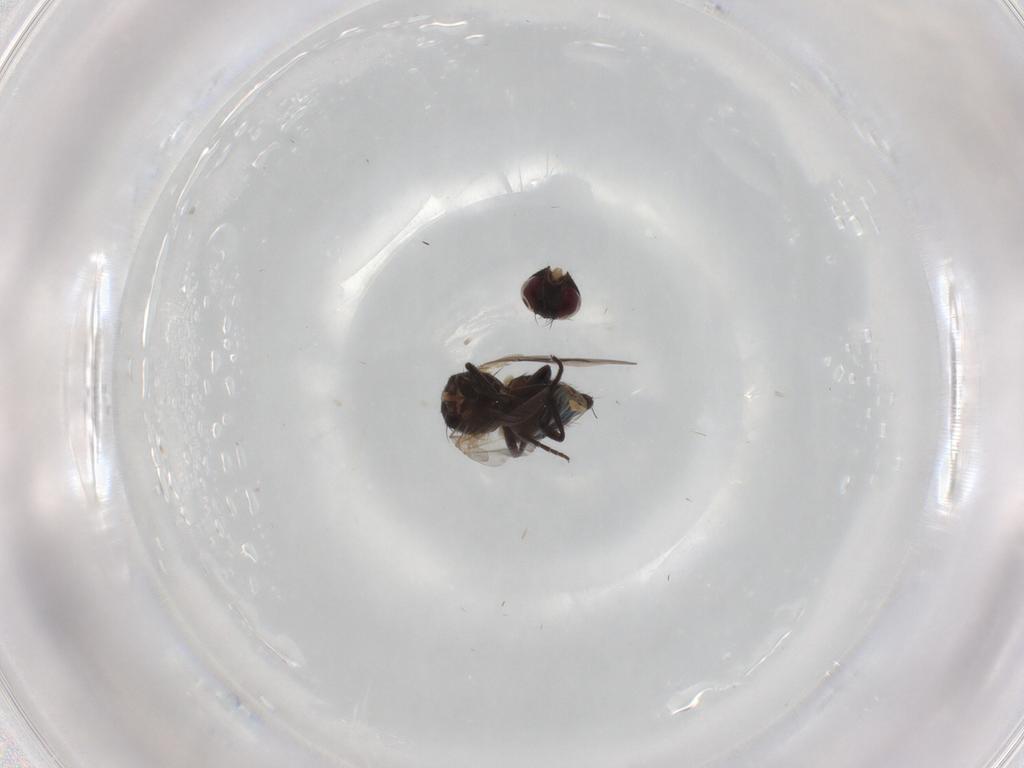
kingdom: Animalia
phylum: Arthropoda
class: Insecta
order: Diptera
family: Agromyzidae
